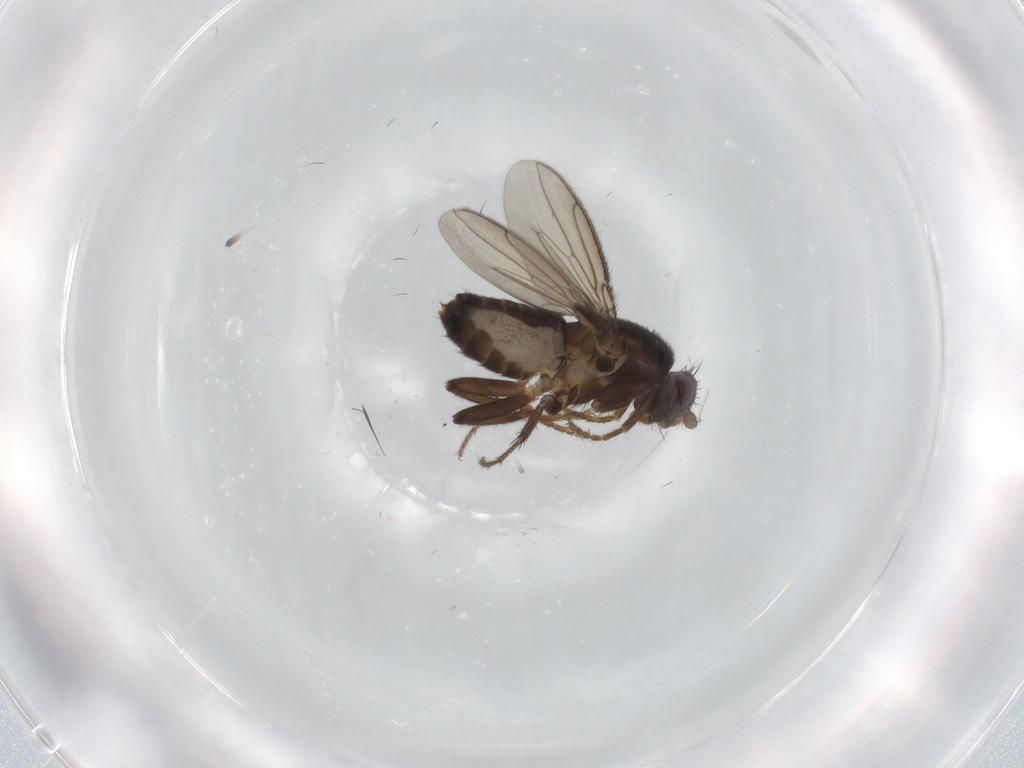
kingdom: Animalia
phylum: Arthropoda
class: Insecta
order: Diptera
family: Sphaeroceridae
